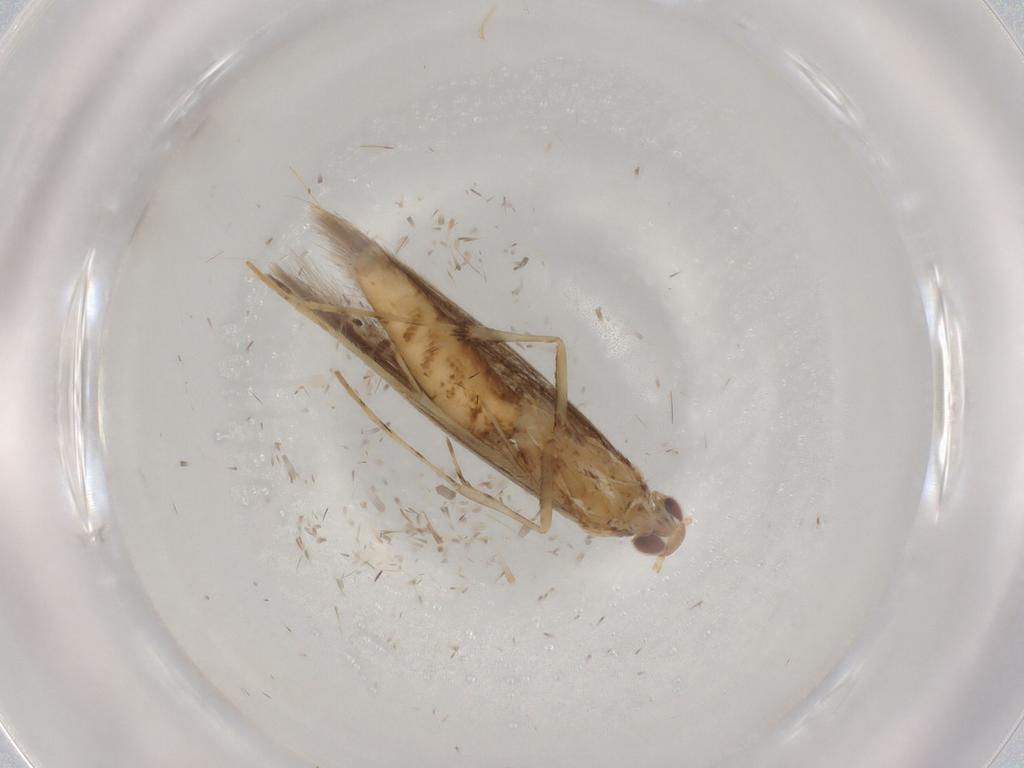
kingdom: Animalia
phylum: Arthropoda
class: Insecta
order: Lepidoptera
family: Gracillariidae
